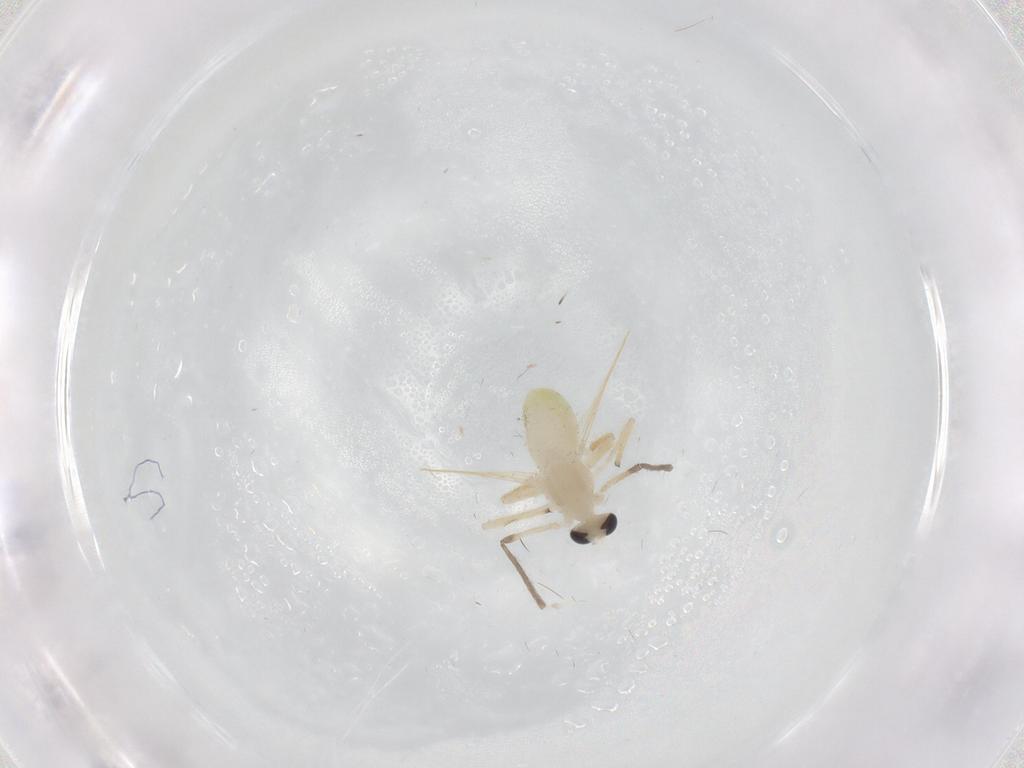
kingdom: Animalia
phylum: Arthropoda
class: Insecta
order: Diptera
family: Chironomidae
